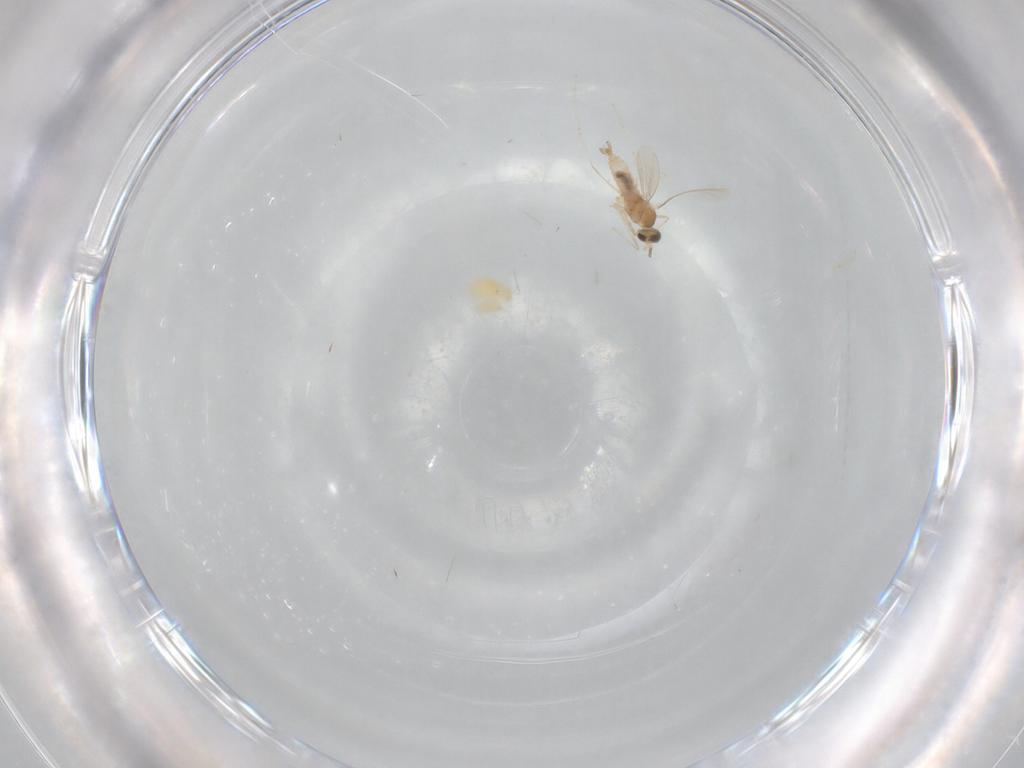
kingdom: Animalia
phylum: Arthropoda
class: Insecta
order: Diptera
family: Cecidomyiidae
